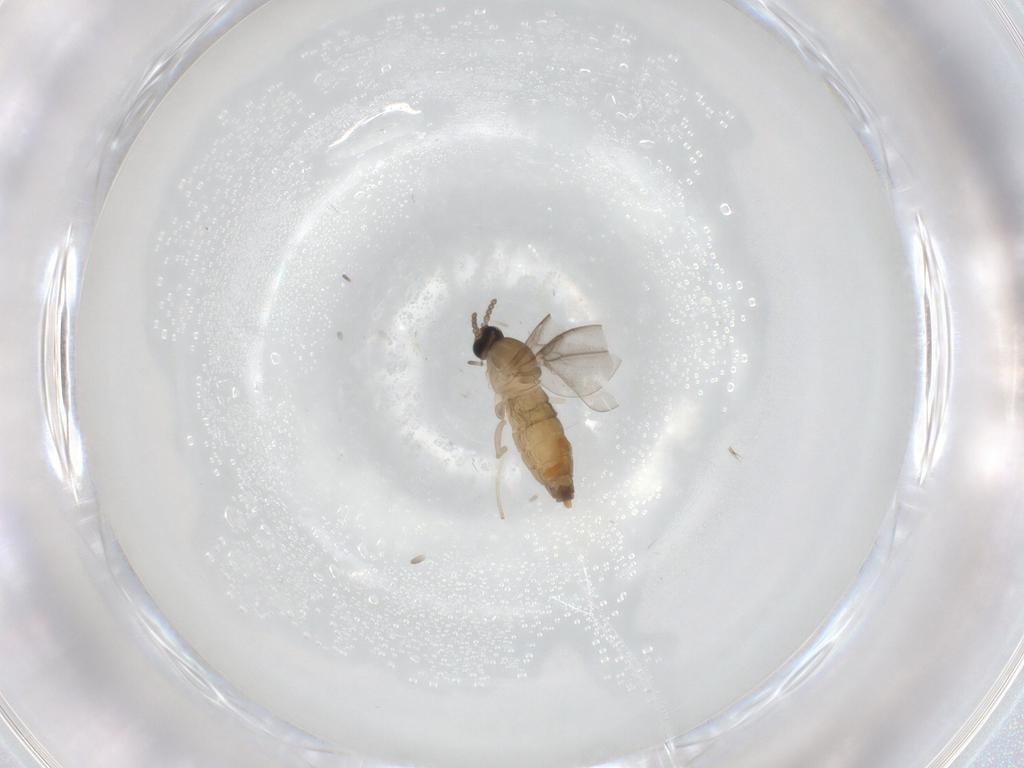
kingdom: Animalia
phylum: Arthropoda
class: Insecta
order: Diptera
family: Cecidomyiidae
